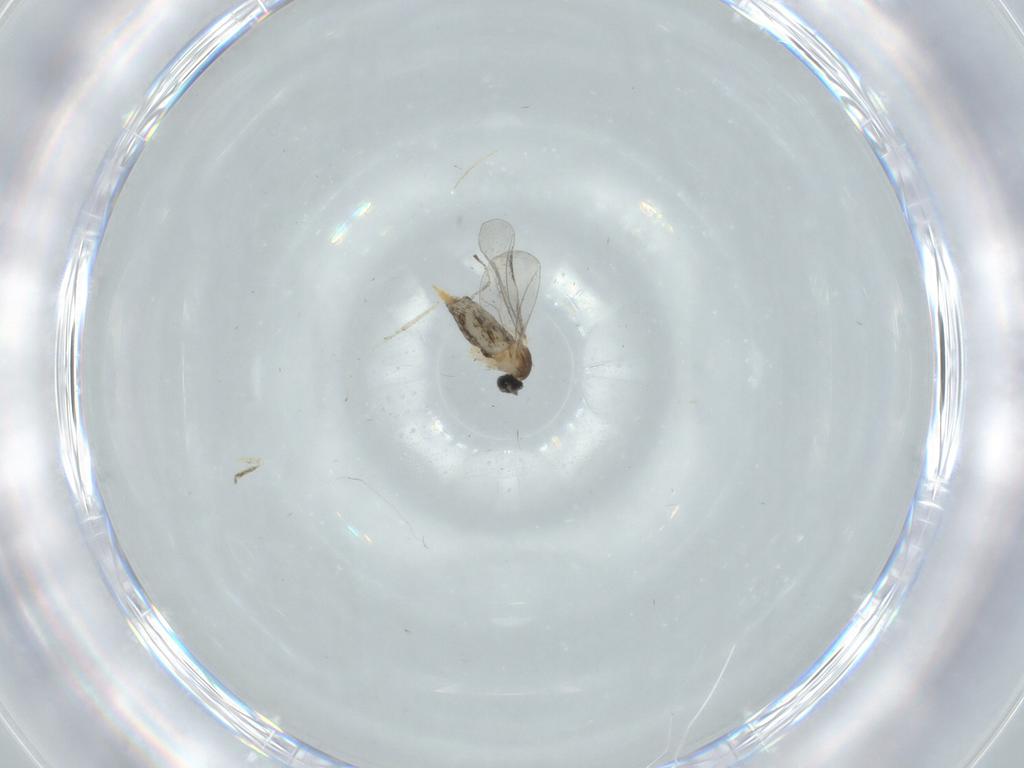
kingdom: Animalia
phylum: Arthropoda
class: Insecta
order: Diptera
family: Cecidomyiidae
